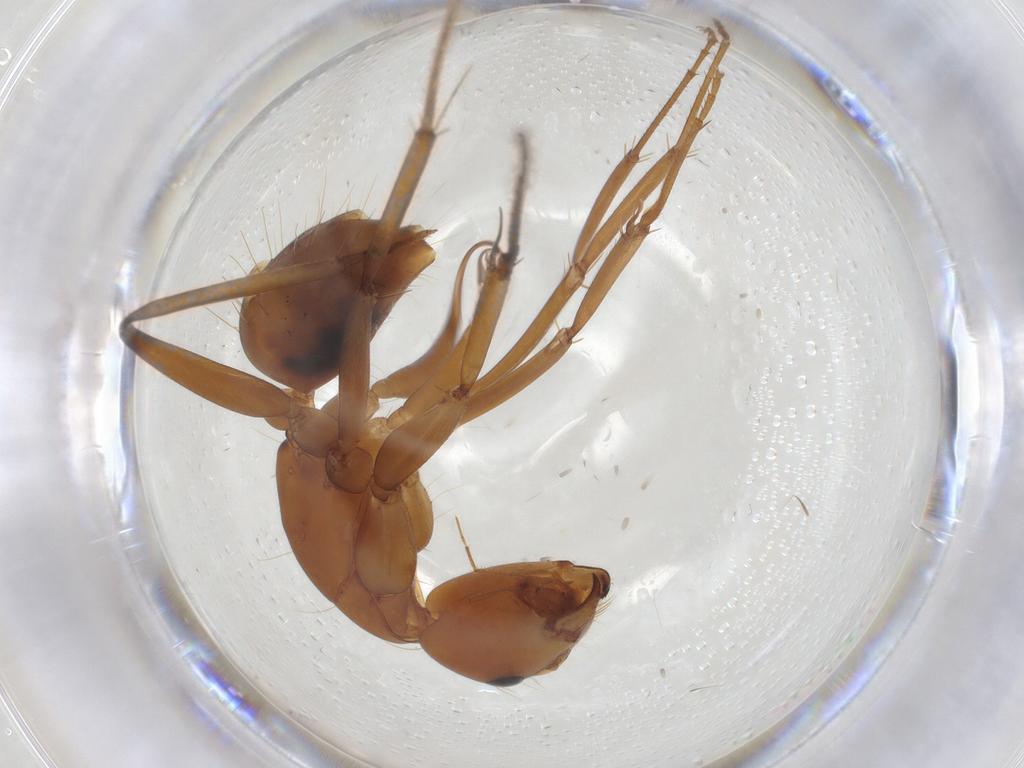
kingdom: Animalia
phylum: Arthropoda
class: Insecta
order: Hymenoptera
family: Formicidae
